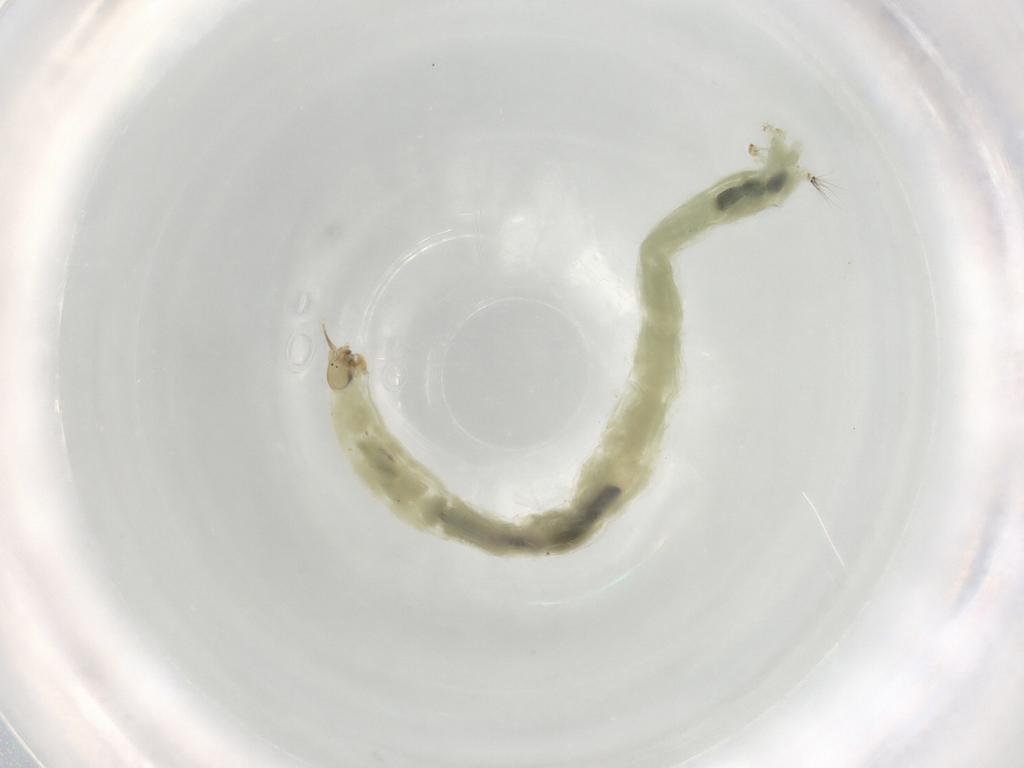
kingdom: Animalia
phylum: Arthropoda
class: Insecta
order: Diptera
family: Chironomidae
